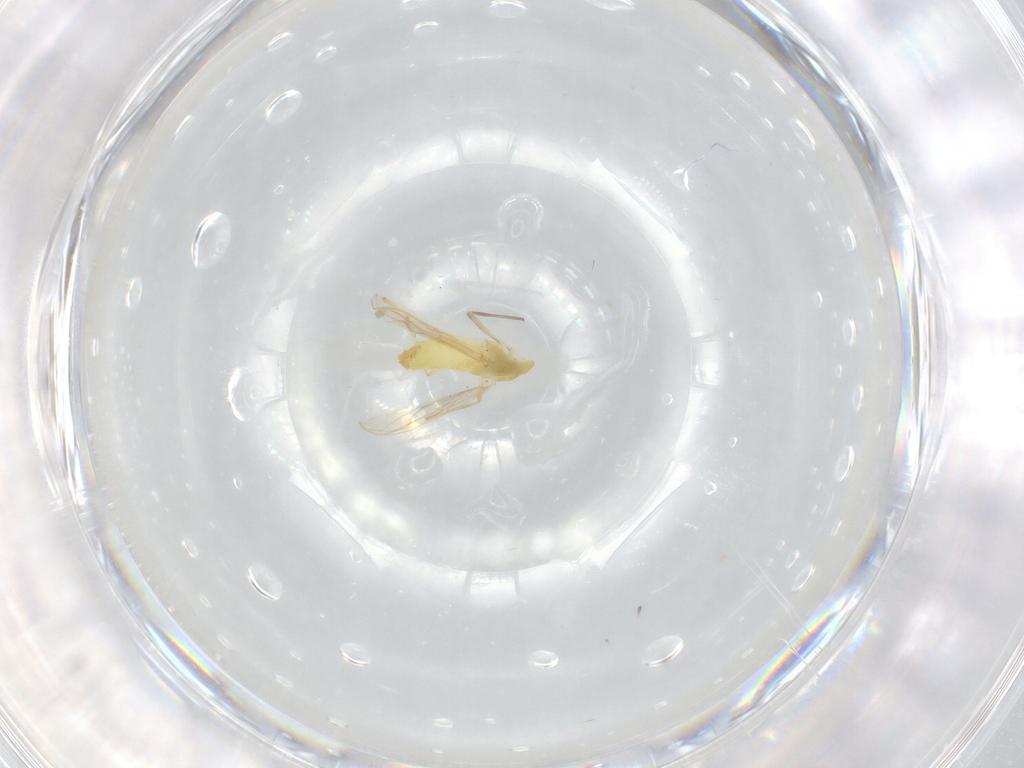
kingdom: Animalia
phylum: Arthropoda
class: Insecta
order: Diptera
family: Chironomidae
